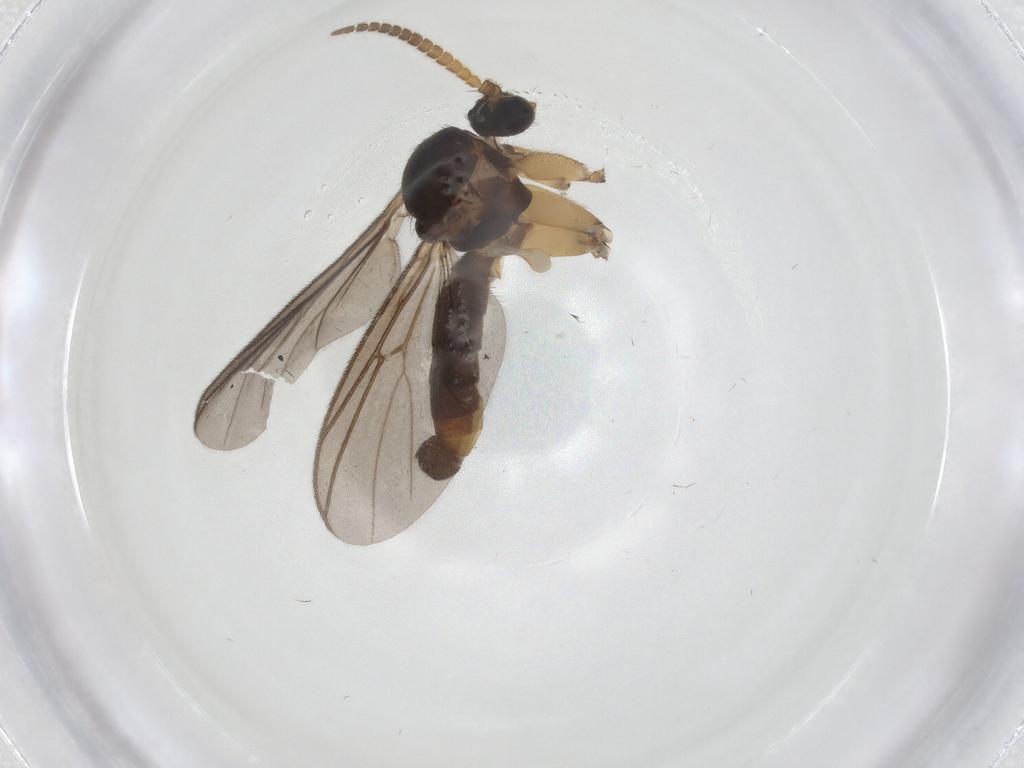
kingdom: Animalia
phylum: Arthropoda
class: Insecta
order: Diptera
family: Mycetophilidae
